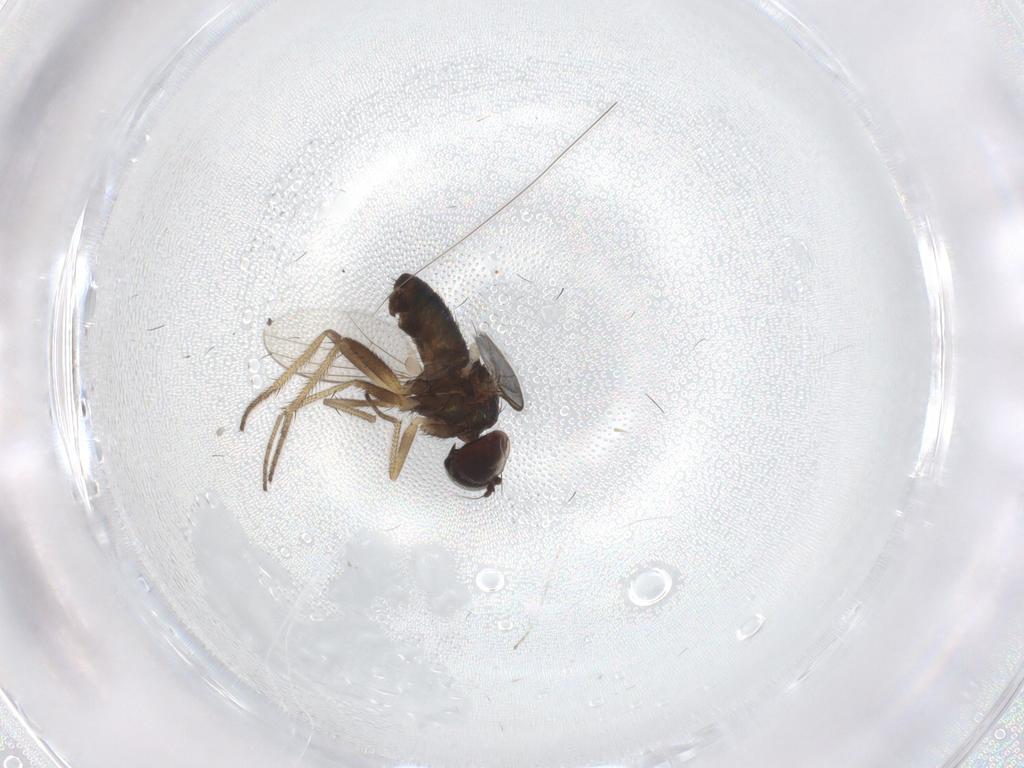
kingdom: Animalia
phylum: Arthropoda
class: Insecta
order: Diptera
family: Dolichopodidae
